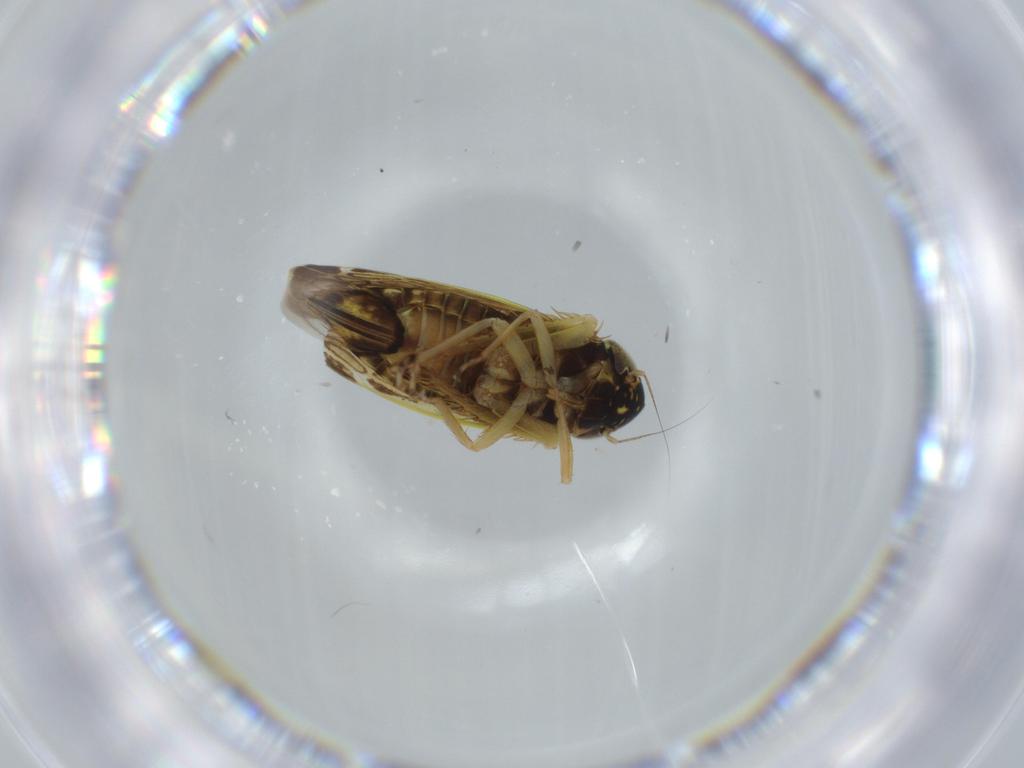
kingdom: Animalia
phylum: Arthropoda
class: Insecta
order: Hemiptera
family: Cicadellidae
